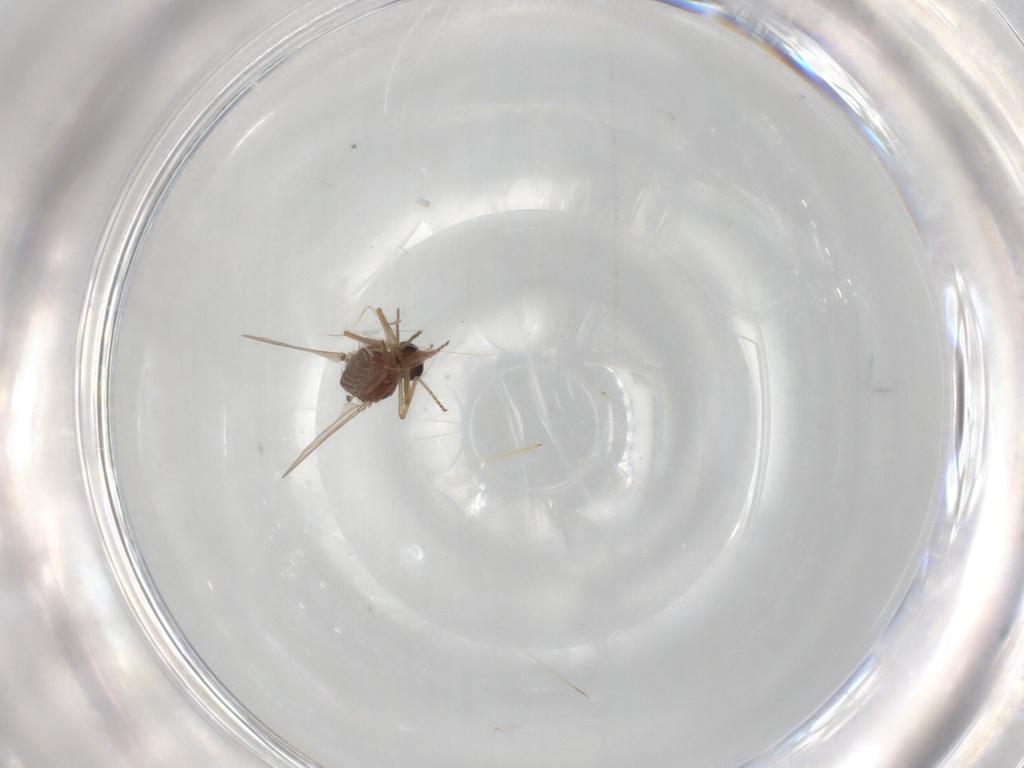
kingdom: Animalia
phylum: Arthropoda
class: Insecta
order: Diptera
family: Ceratopogonidae
